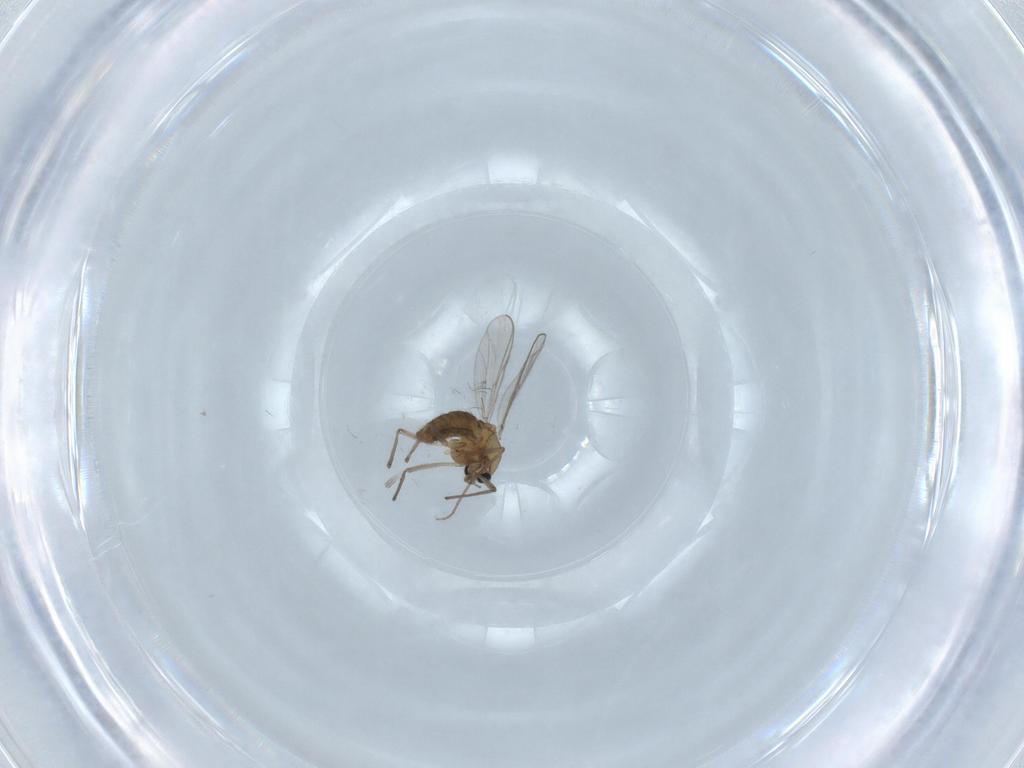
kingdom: Animalia
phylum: Arthropoda
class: Insecta
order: Diptera
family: Chironomidae
